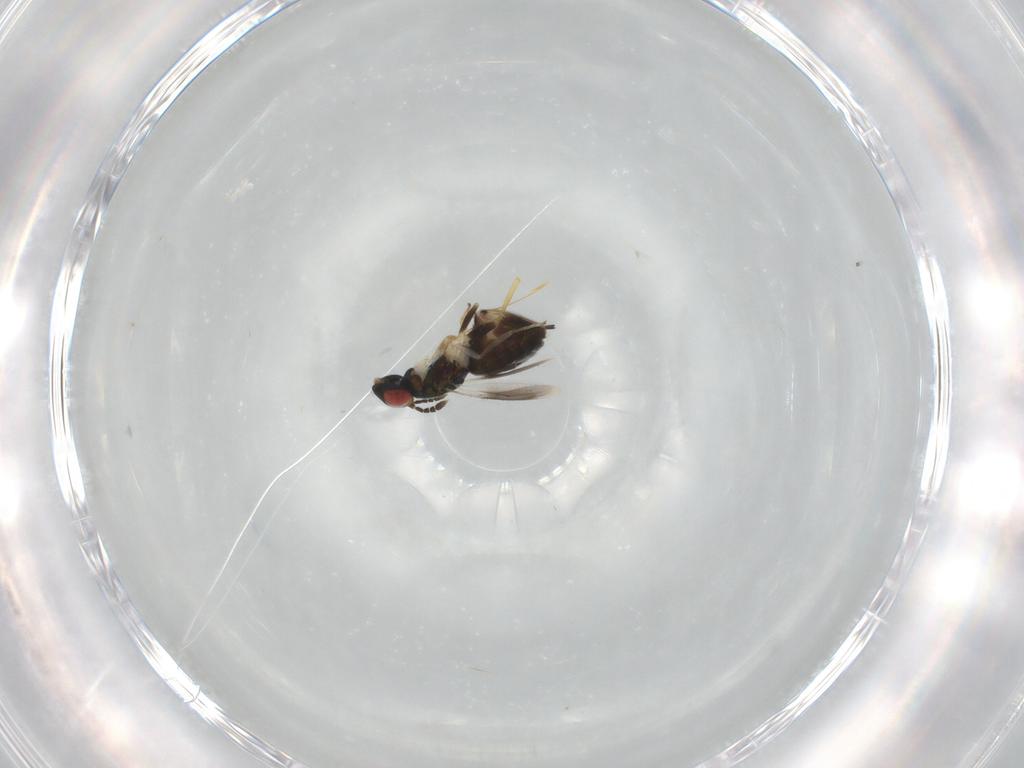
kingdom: Animalia
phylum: Arthropoda
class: Insecta
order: Hymenoptera
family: Eulophidae
